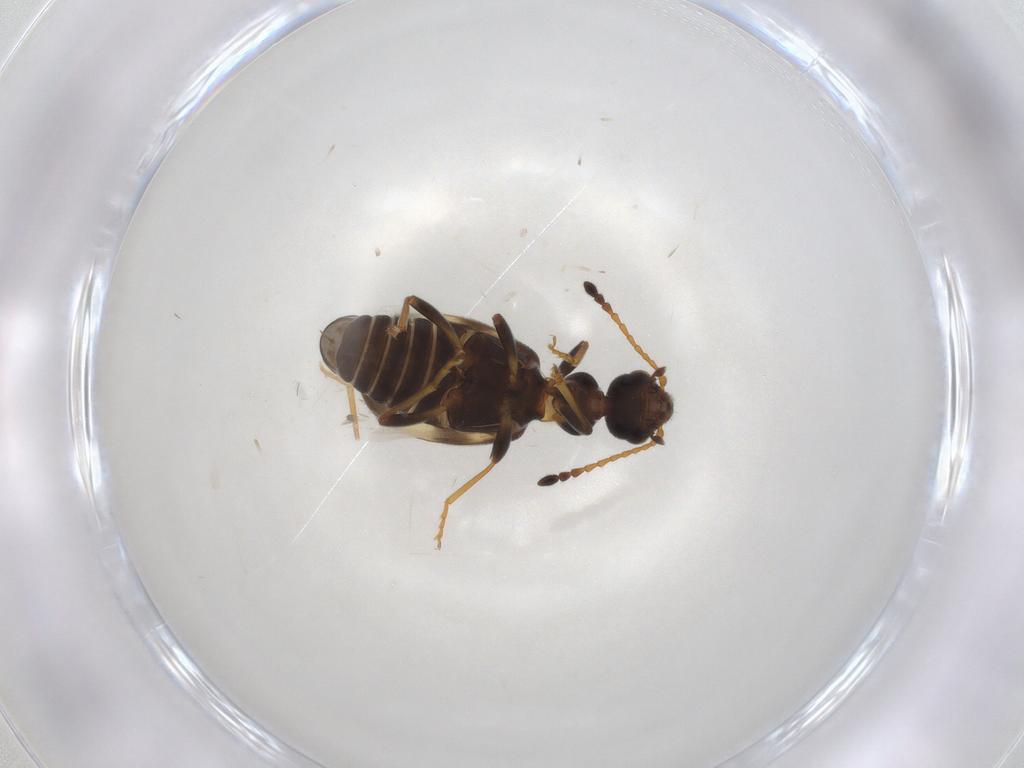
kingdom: Animalia
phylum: Arthropoda
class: Insecta
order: Coleoptera
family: Anthicidae
